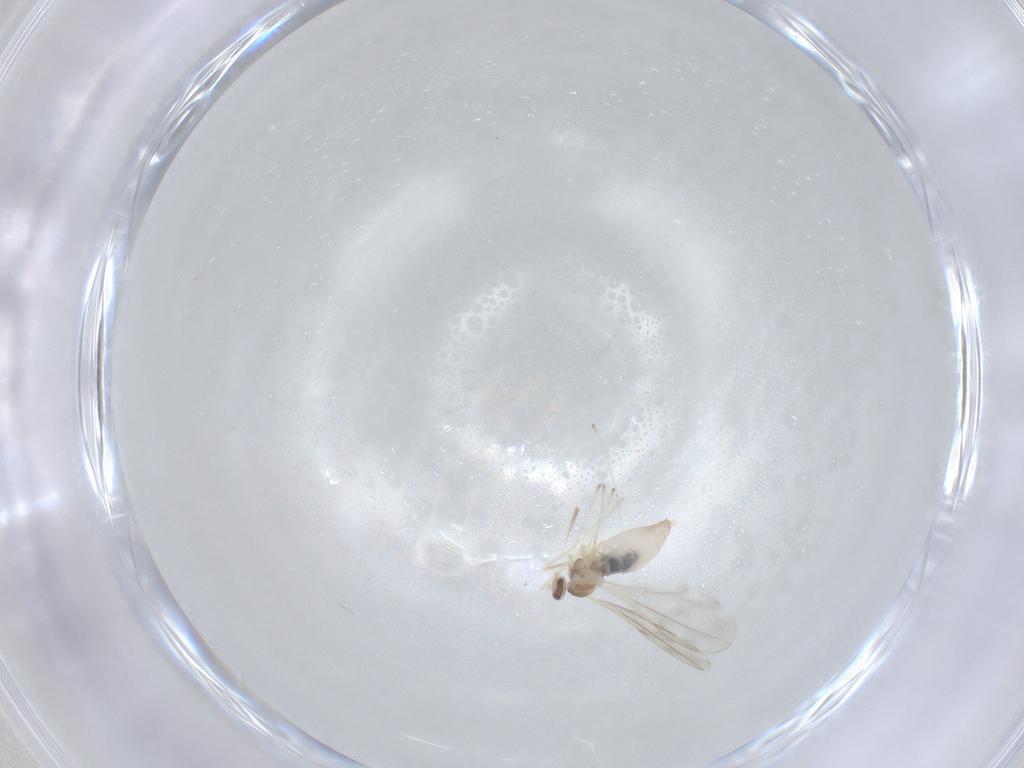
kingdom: Animalia
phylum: Arthropoda
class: Insecta
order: Diptera
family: Cecidomyiidae
